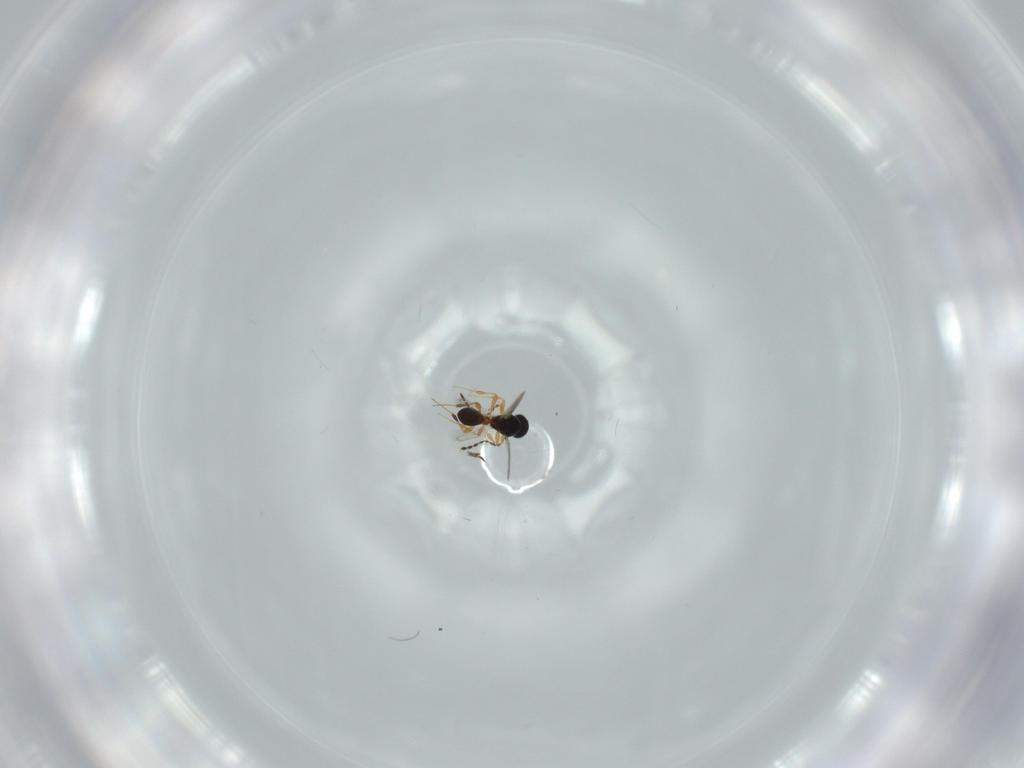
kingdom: Animalia
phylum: Arthropoda
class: Insecta
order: Hymenoptera
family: Platygastridae
